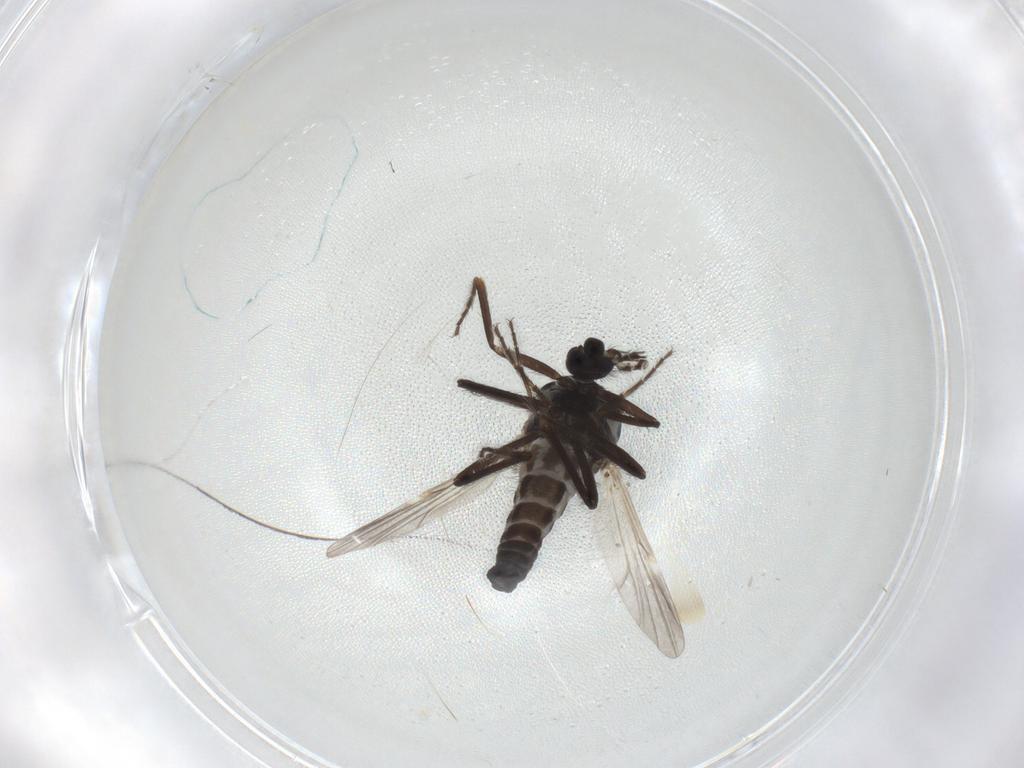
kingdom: Animalia
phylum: Arthropoda
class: Insecta
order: Diptera
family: Ceratopogonidae
